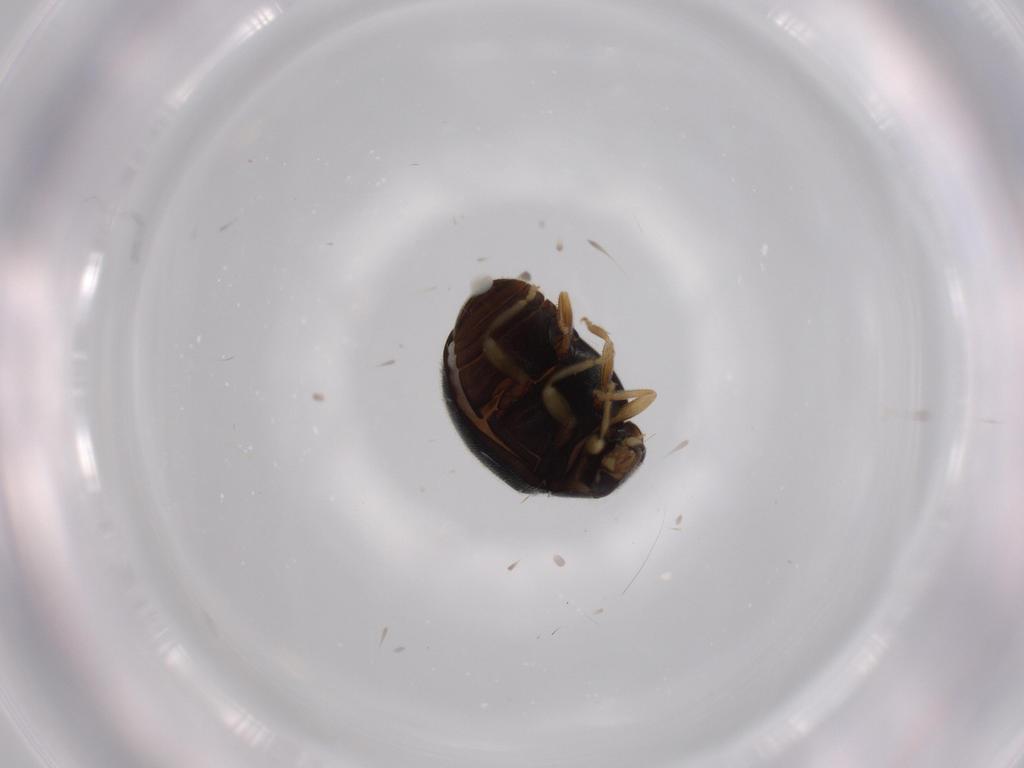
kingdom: Animalia
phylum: Arthropoda
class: Insecta
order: Coleoptera
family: Coccinellidae
